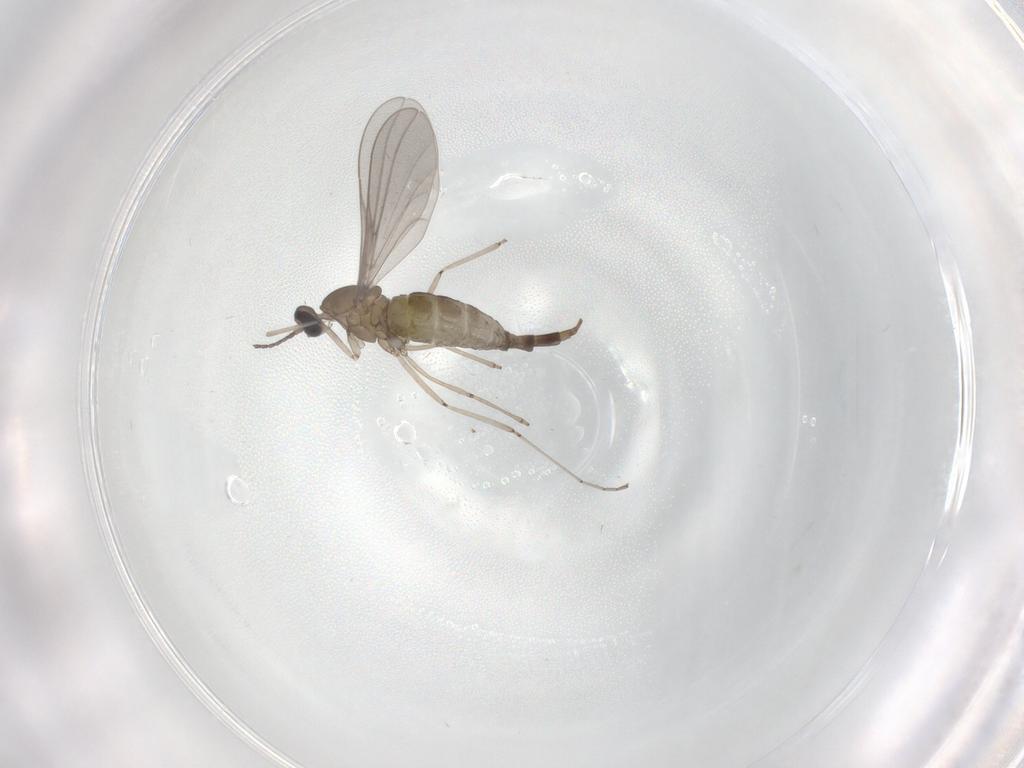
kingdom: Animalia
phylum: Arthropoda
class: Insecta
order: Diptera
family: Cecidomyiidae
